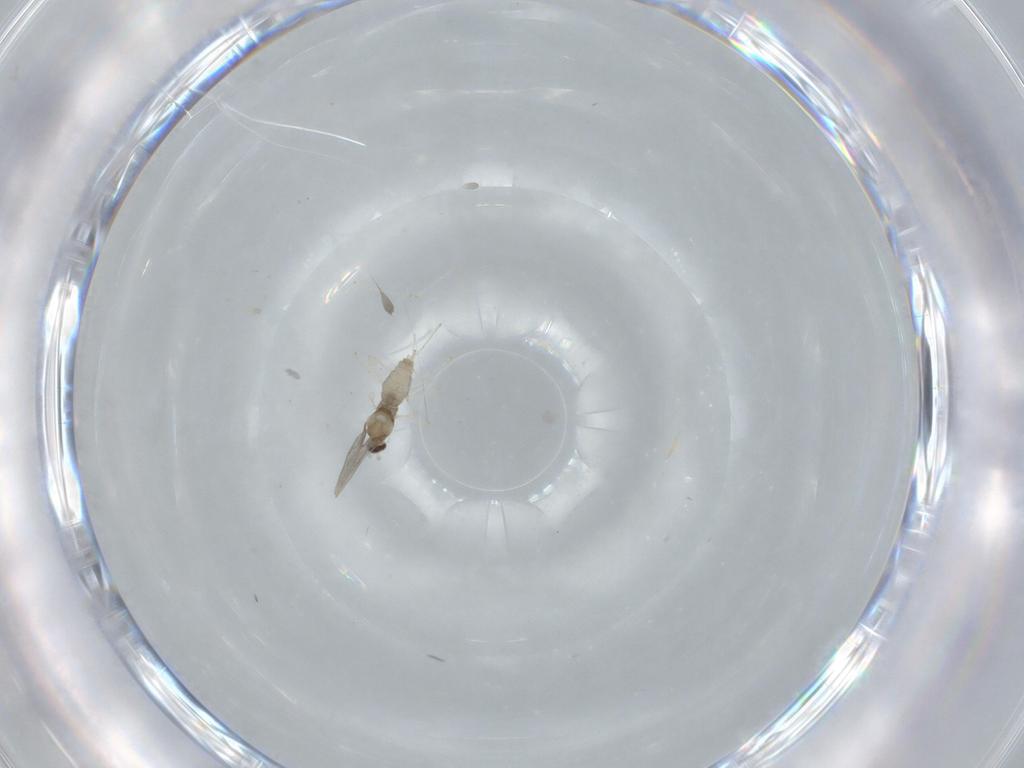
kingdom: Animalia
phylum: Arthropoda
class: Insecta
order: Diptera
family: Cecidomyiidae
